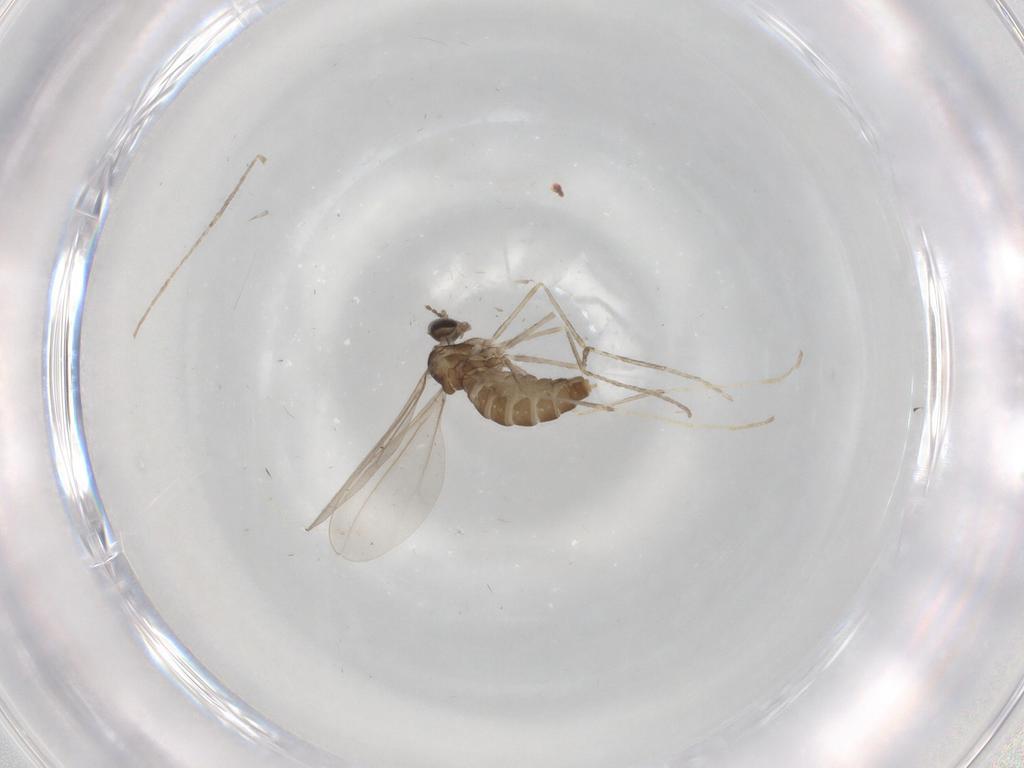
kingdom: Animalia
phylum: Arthropoda
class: Insecta
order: Diptera
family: Cecidomyiidae
